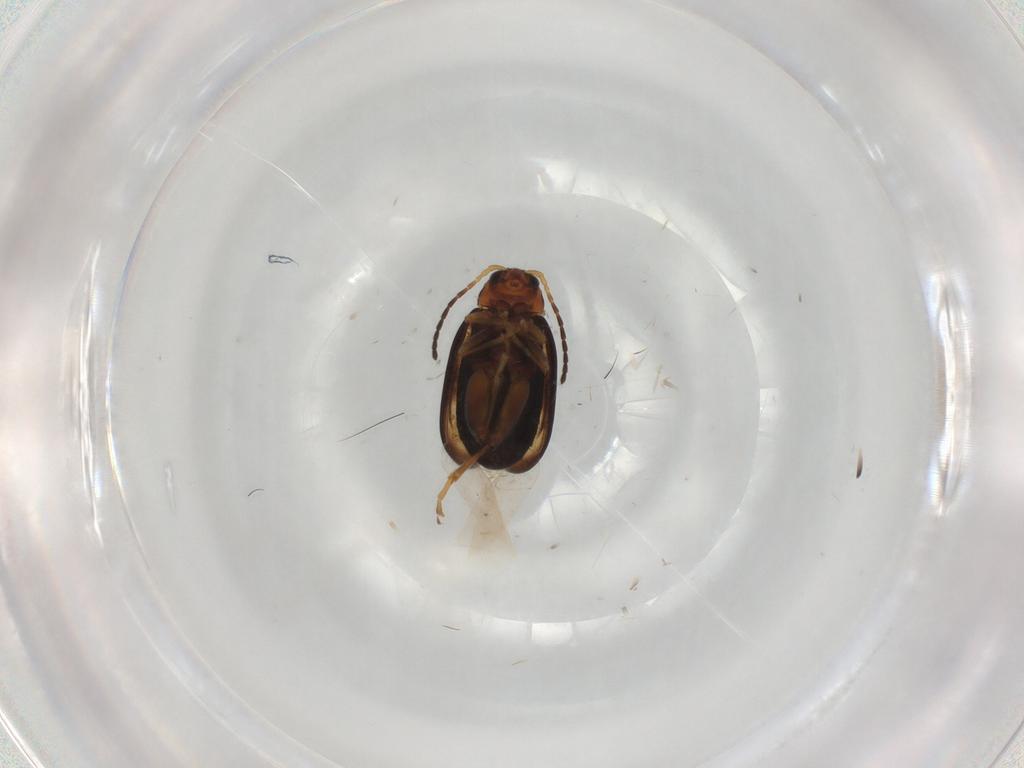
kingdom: Animalia
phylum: Arthropoda
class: Insecta
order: Coleoptera
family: Chrysomelidae
